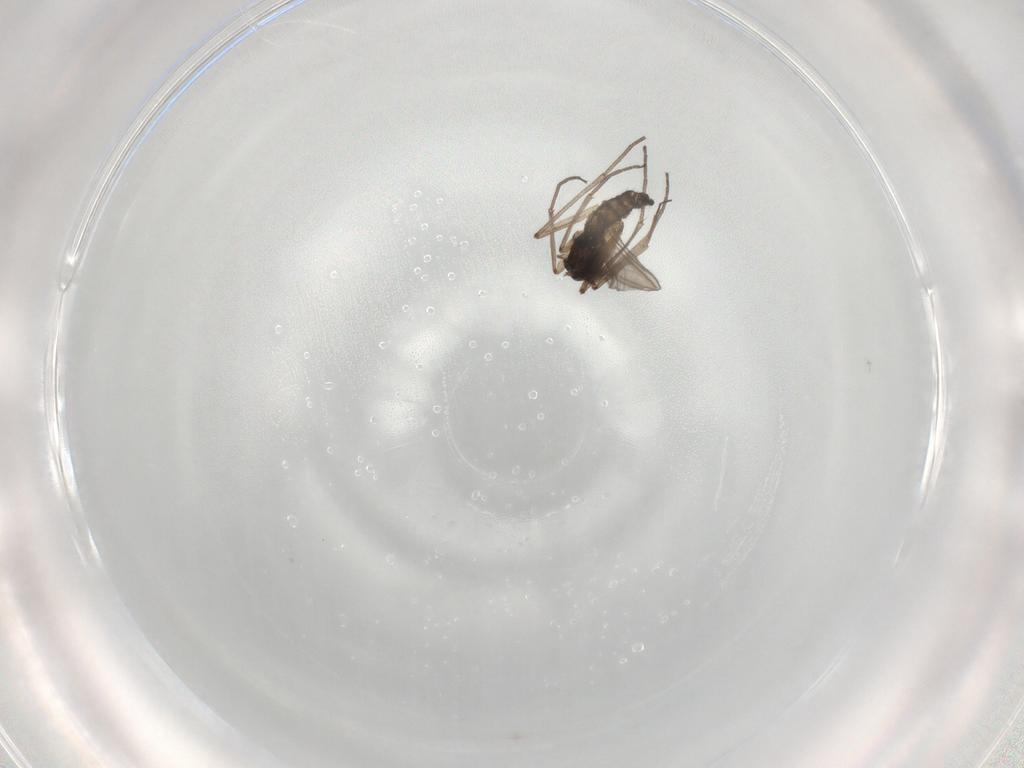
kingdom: Animalia
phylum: Arthropoda
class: Insecta
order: Diptera
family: Sciaridae
